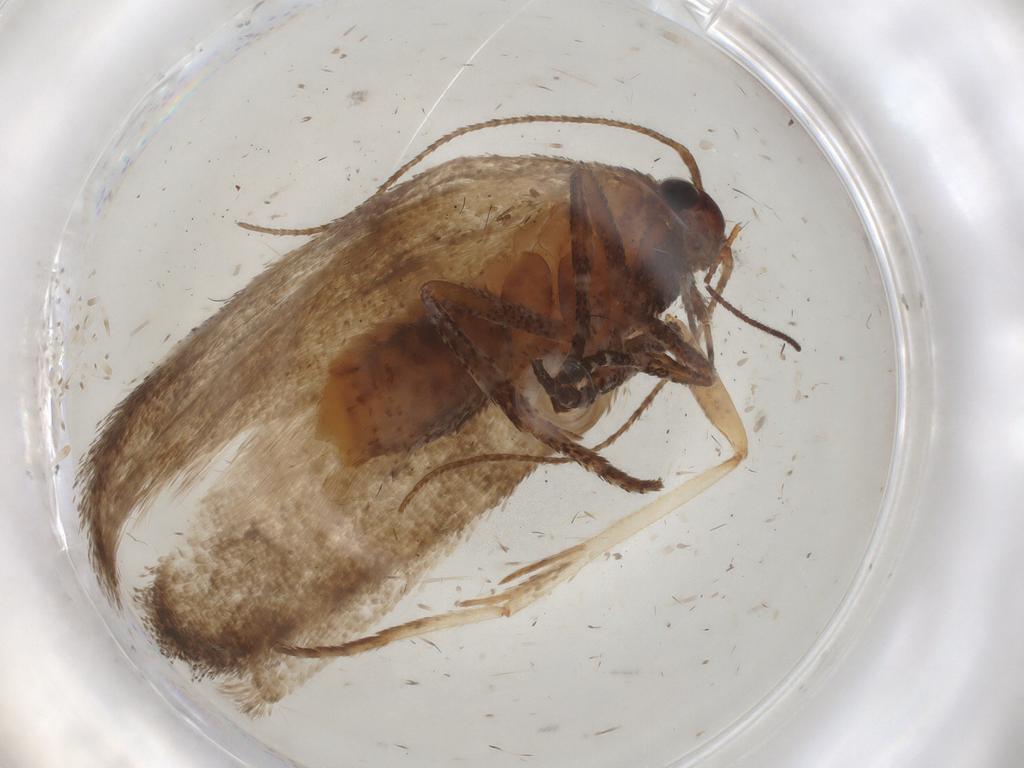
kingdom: Animalia
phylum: Arthropoda
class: Insecta
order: Lepidoptera
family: Cosmopterigidae
